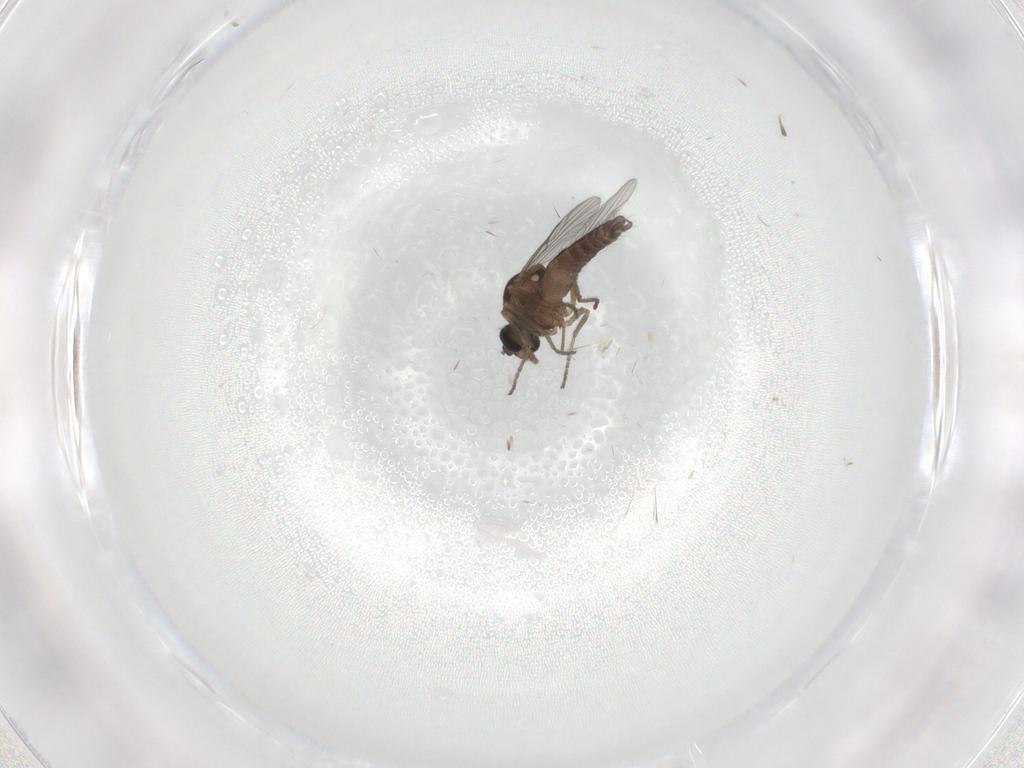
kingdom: Animalia
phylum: Arthropoda
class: Insecta
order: Diptera
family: Ceratopogonidae
